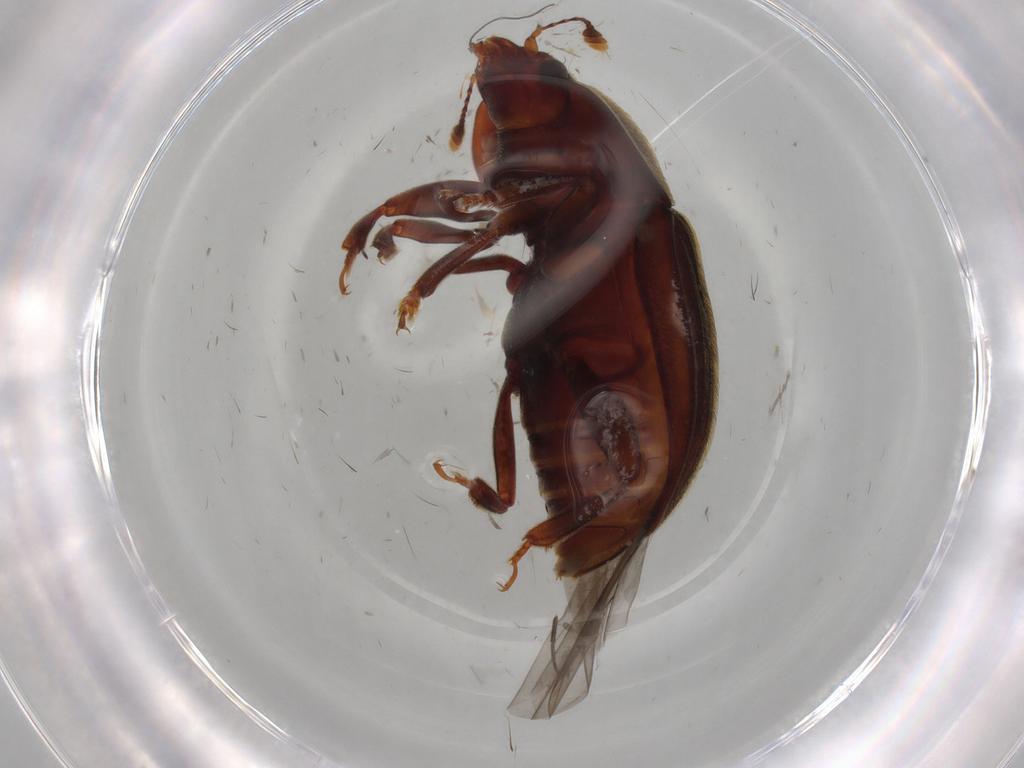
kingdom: Animalia
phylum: Arthropoda
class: Insecta
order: Coleoptera
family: Nitidulidae
